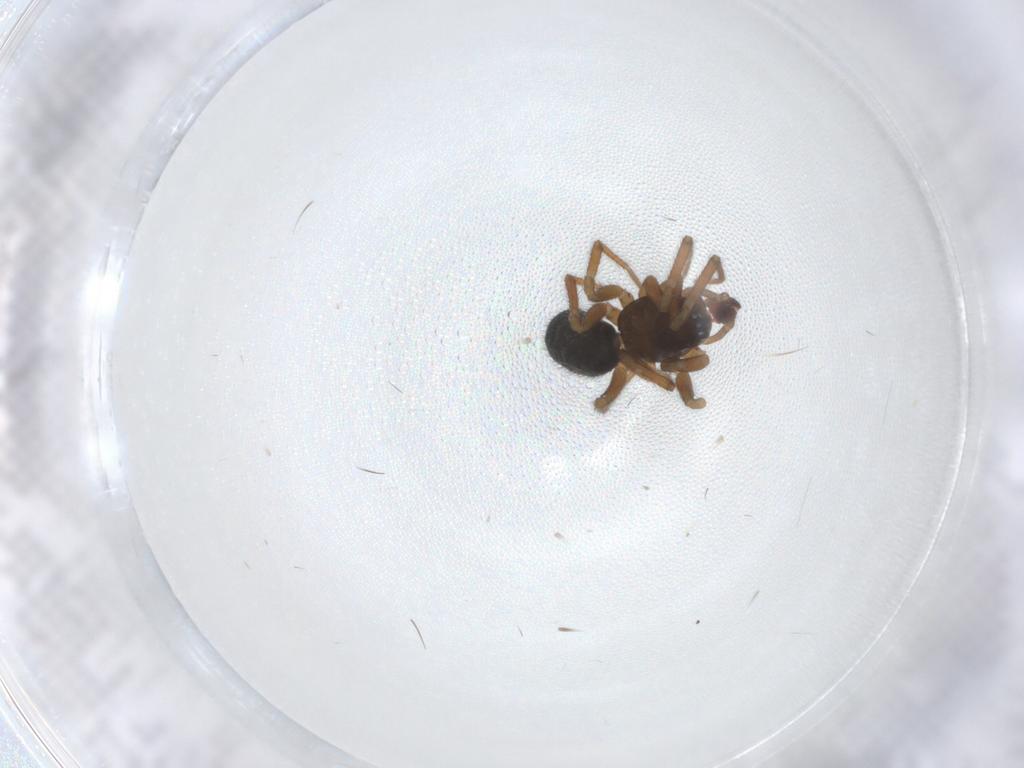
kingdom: Animalia
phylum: Arthropoda
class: Arachnida
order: Araneae
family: Linyphiidae
